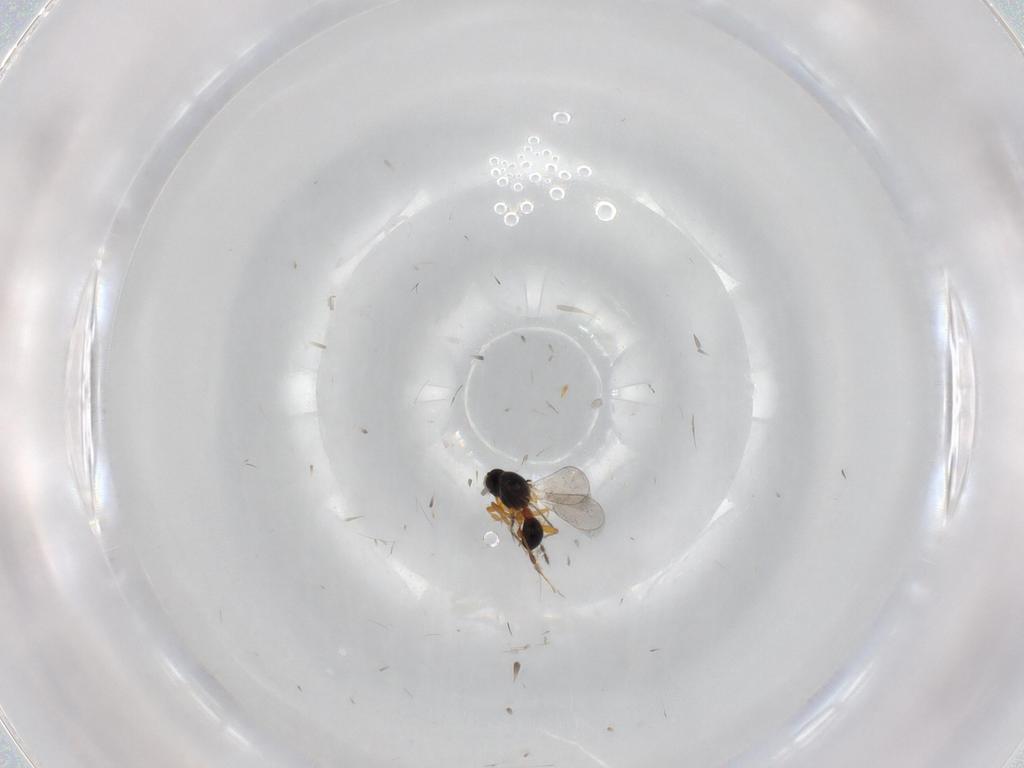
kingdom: Animalia
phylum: Arthropoda
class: Insecta
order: Hymenoptera
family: Platygastridae
